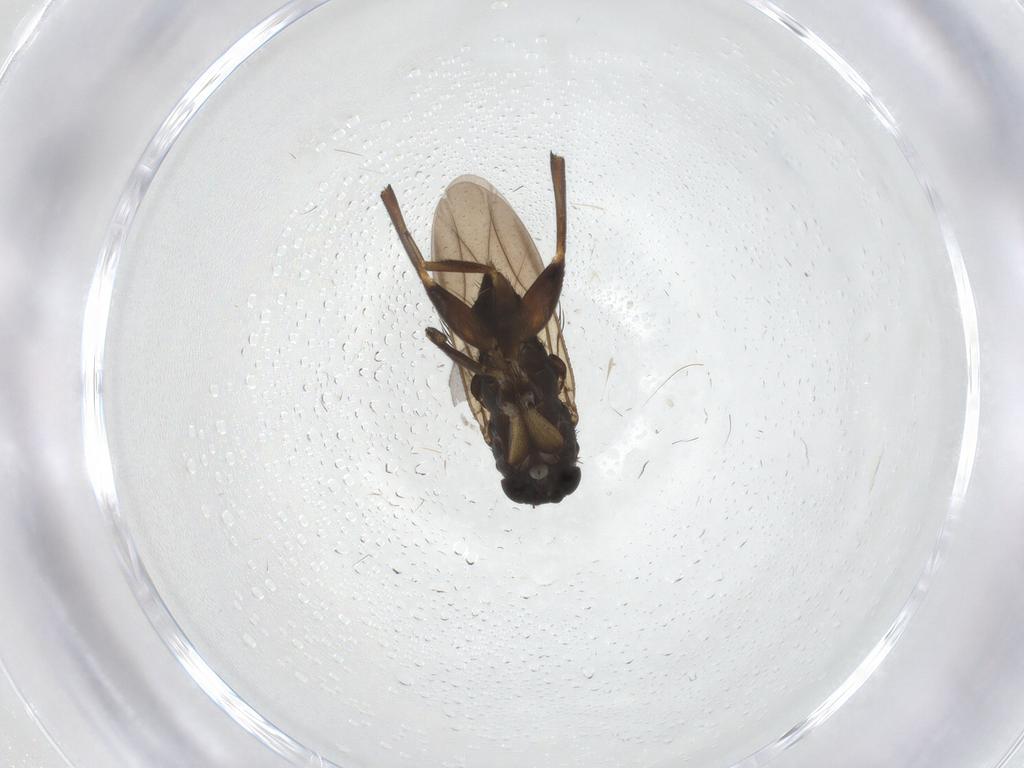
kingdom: Animalia
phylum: Arthropoda
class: Insecta
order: Diptera
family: Phoridae
